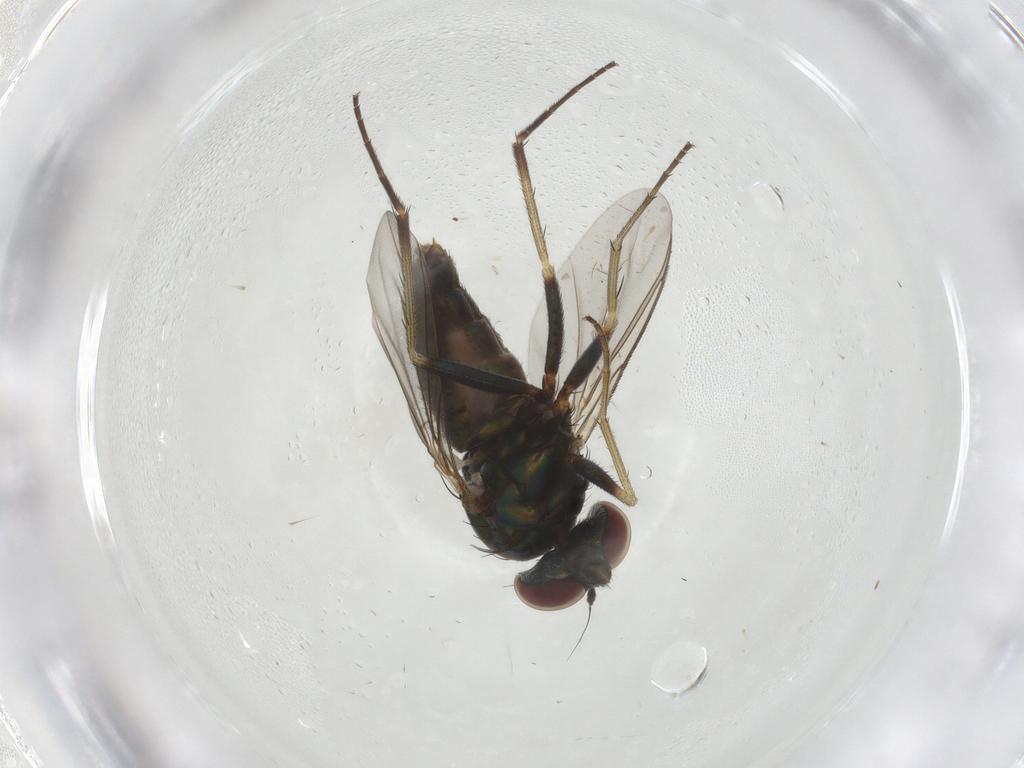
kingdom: Animalia
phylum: Arthropoda
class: Insecta
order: Diptera
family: Dolichopodidae
